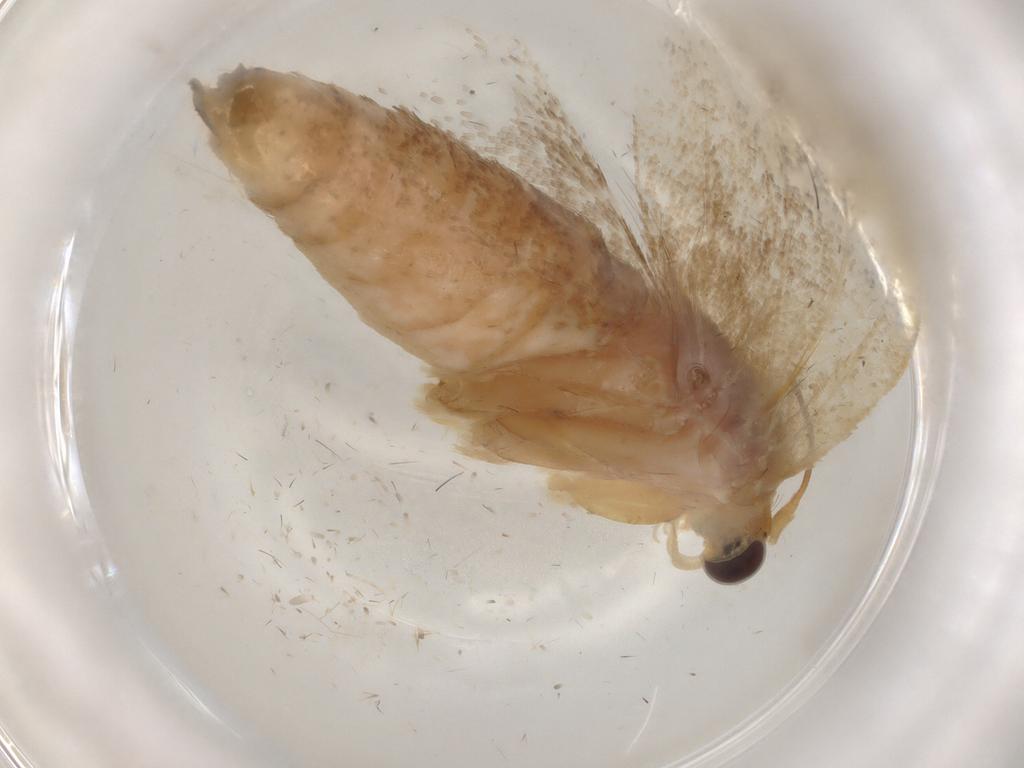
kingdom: Animalia
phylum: Arthropoda
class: Insecta
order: Lepidoptera
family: Tortricidae
